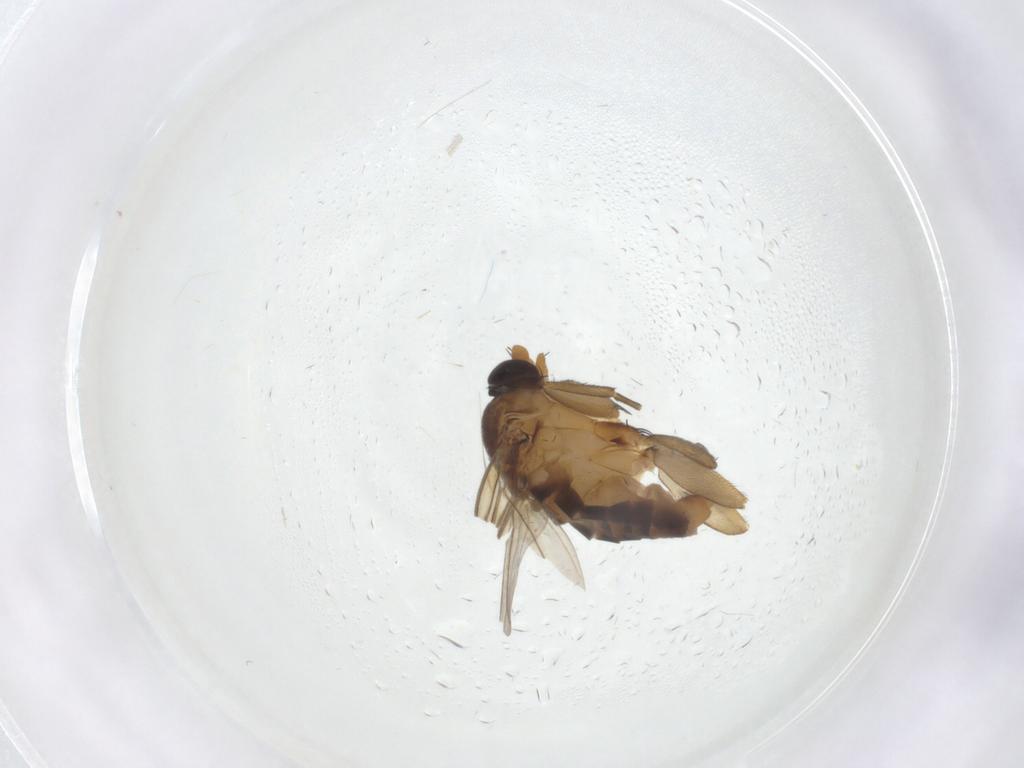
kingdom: Animalia
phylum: Arthropoda
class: Insecta
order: Diptera
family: Phoridae
